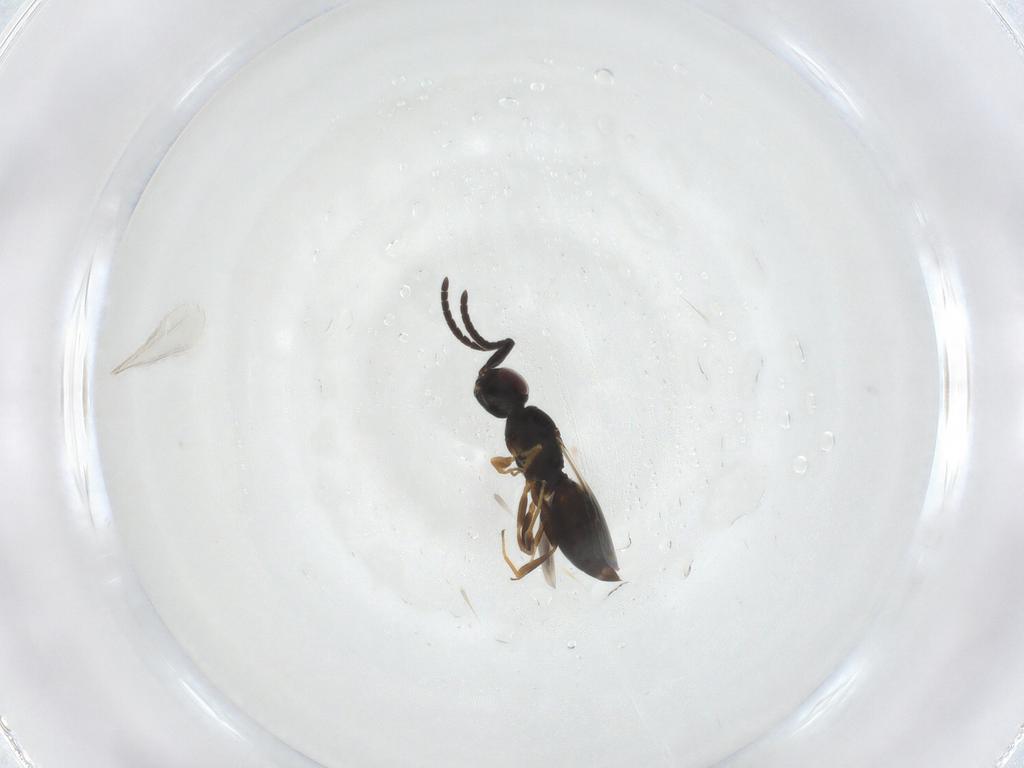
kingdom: Animalia
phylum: Arthropoda
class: Insecta
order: Hymenoptera
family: Megaspilidae
